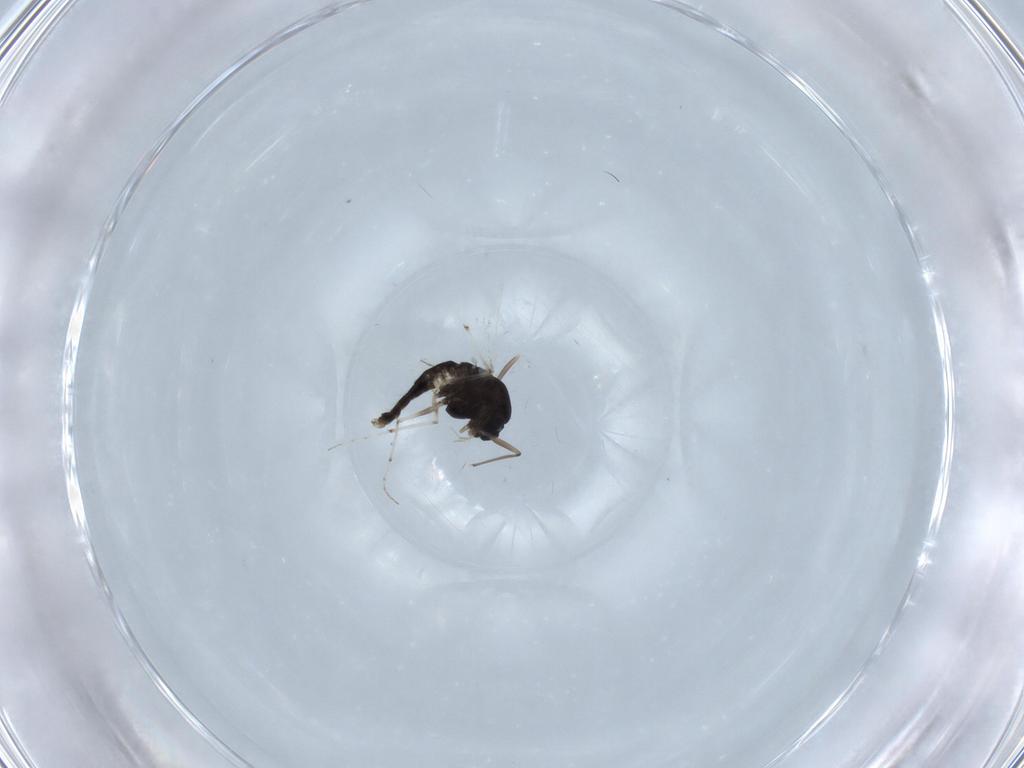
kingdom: Animalia
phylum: Arthropoda
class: Insecta
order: Diptera
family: Chironomidae
